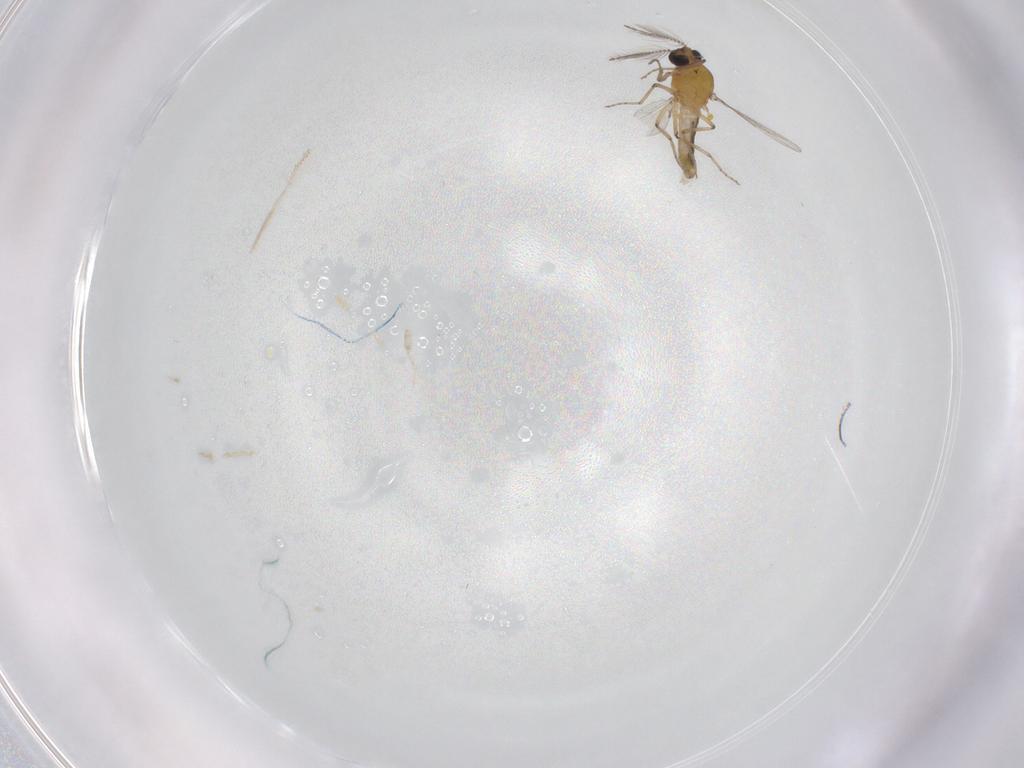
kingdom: Animalia
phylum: Arthropoda
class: Insecta
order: Diptera
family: Ceratopogonidae
